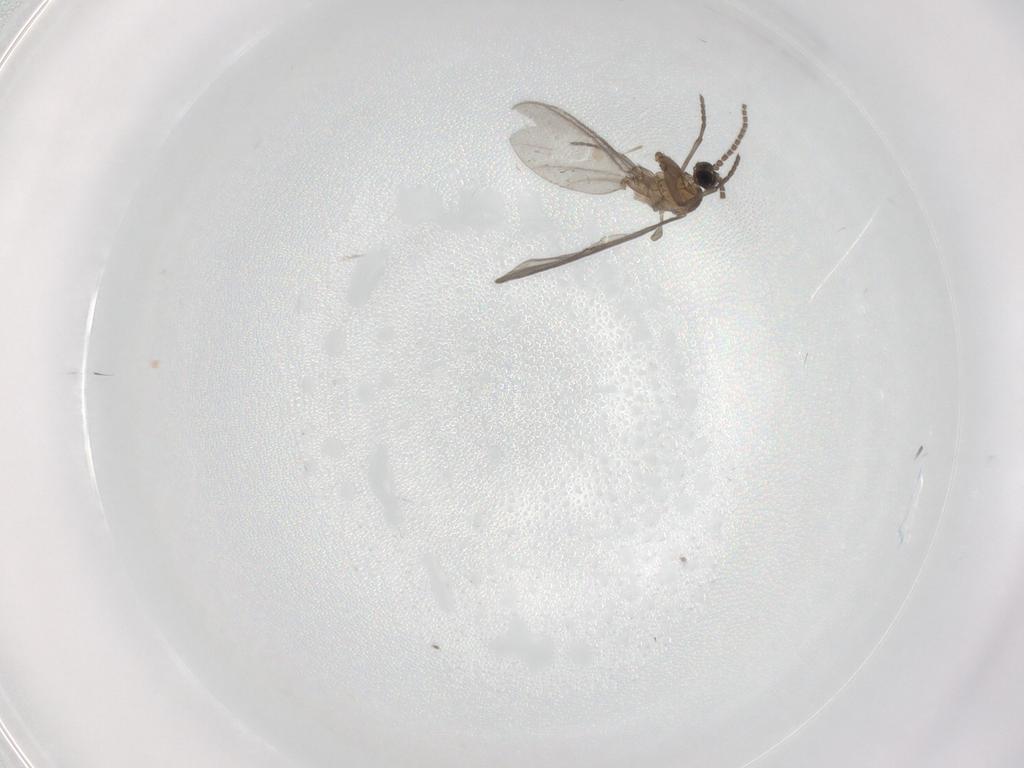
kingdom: Animalia
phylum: Arthropoda
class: Insecta
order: Diptera
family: Sciaridae
